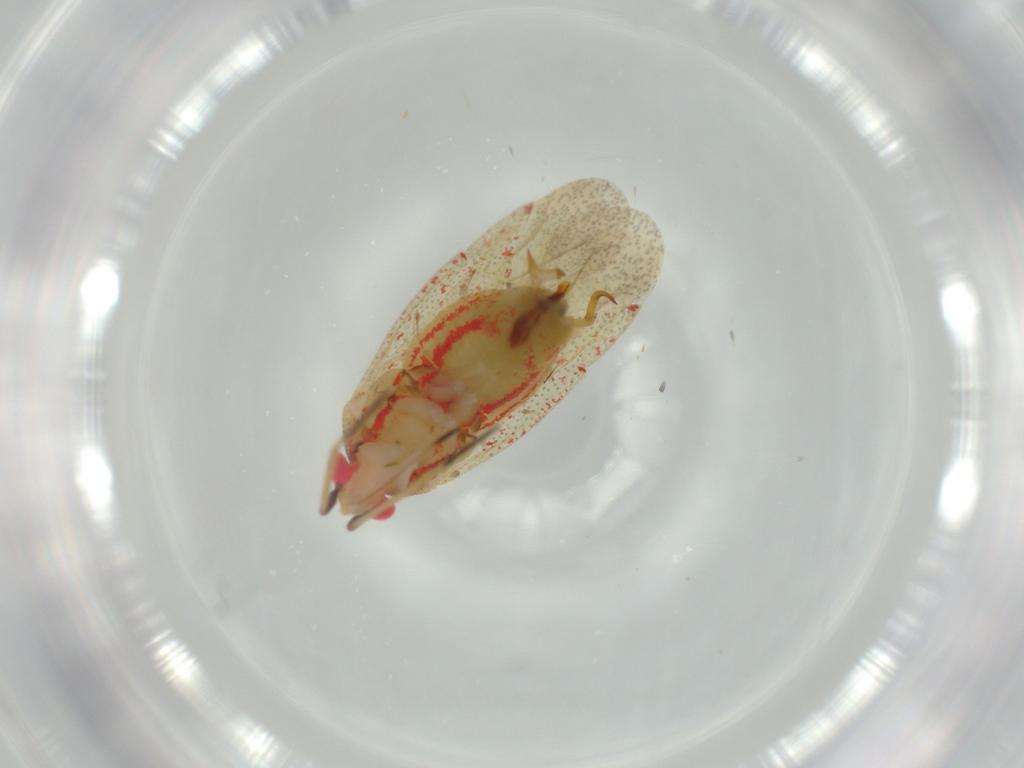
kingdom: Animalia
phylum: Arthropoda
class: Insecta
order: Hemiptera
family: Miridae
